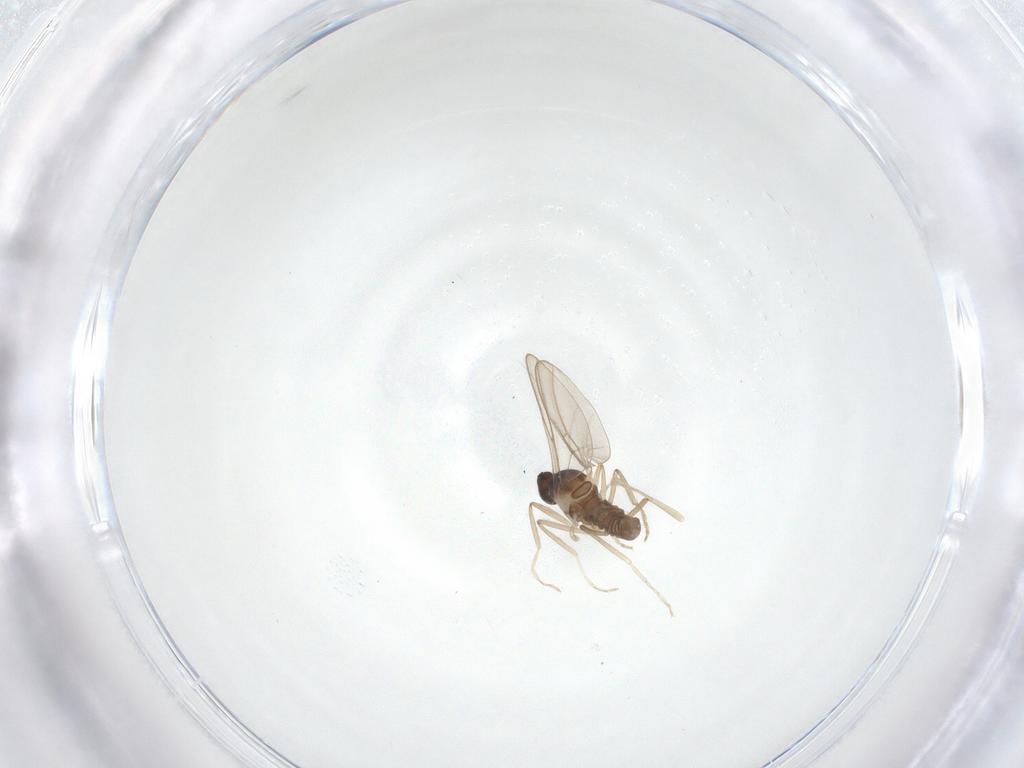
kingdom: Animalia
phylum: Arthropoda
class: Insecta
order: Diptera
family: Cecidomyiidae
